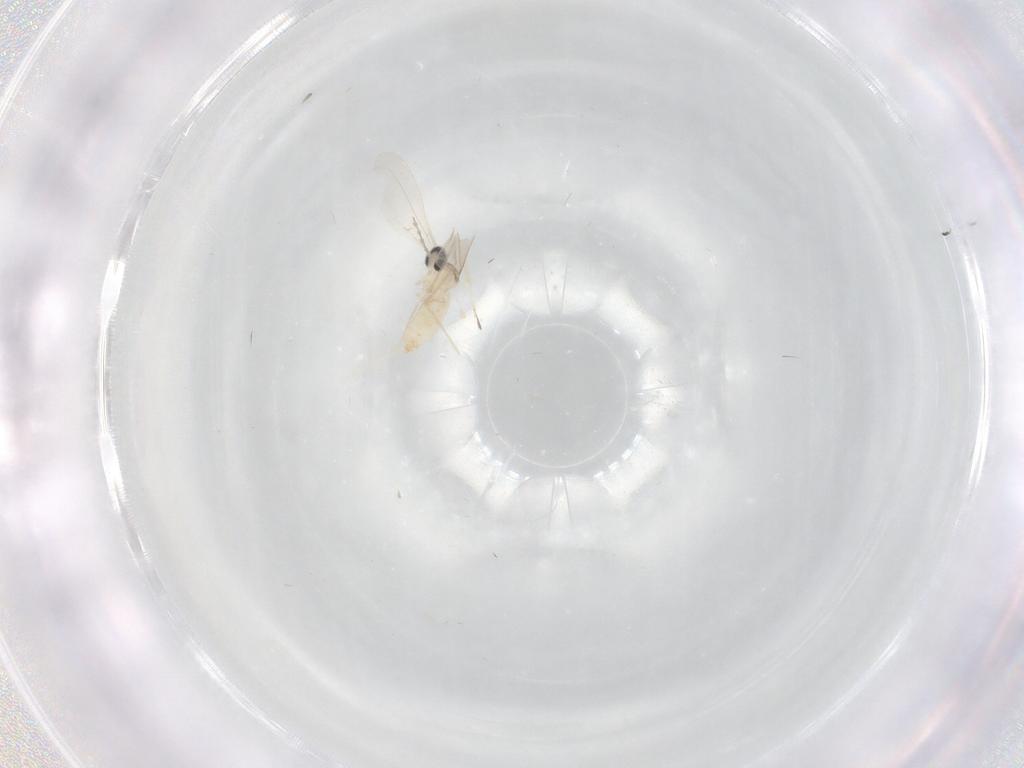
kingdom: Animalia
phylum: Arthropoda
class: Insecta
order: Diptera
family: Ceratopogonidae
